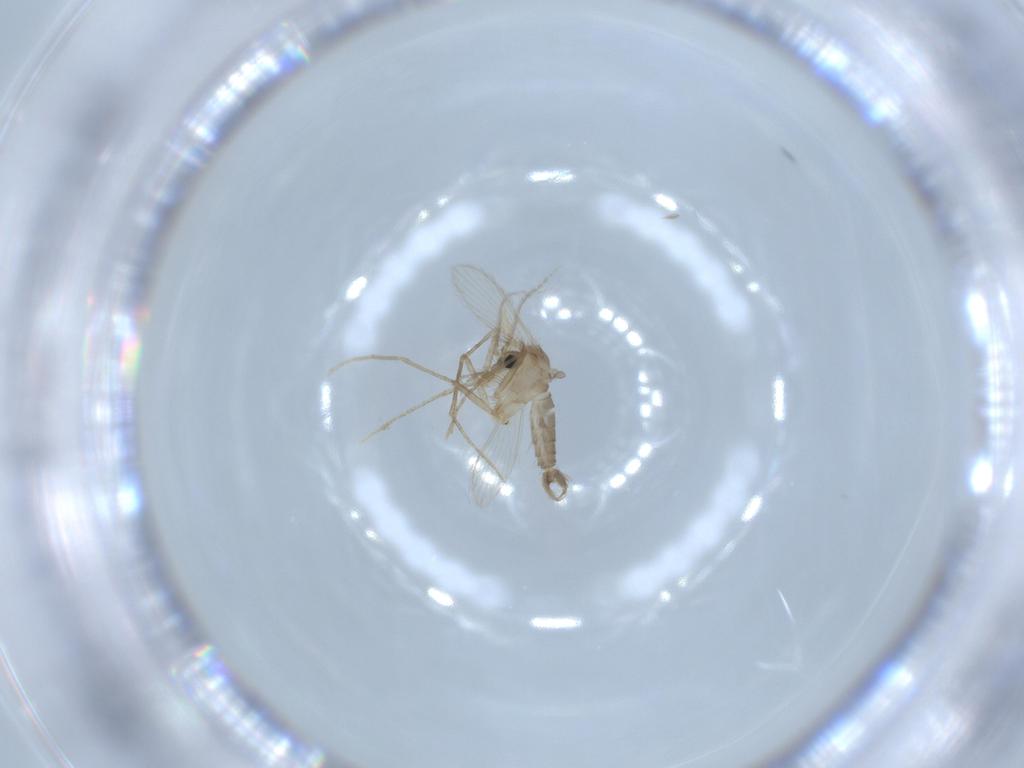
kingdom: Animalia
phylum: Arthropoda
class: Insecta
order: Diptera
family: Psychodidae
